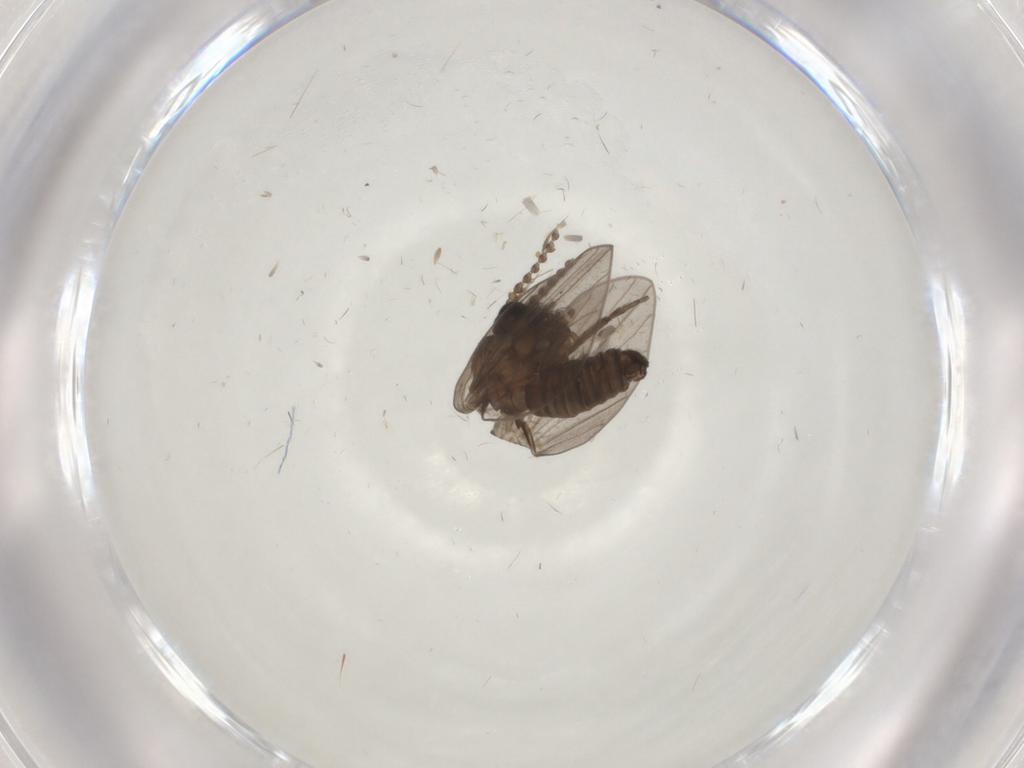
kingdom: Animalia
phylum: Arthropoda
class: Insecta
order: Diptera
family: Psychodidae
